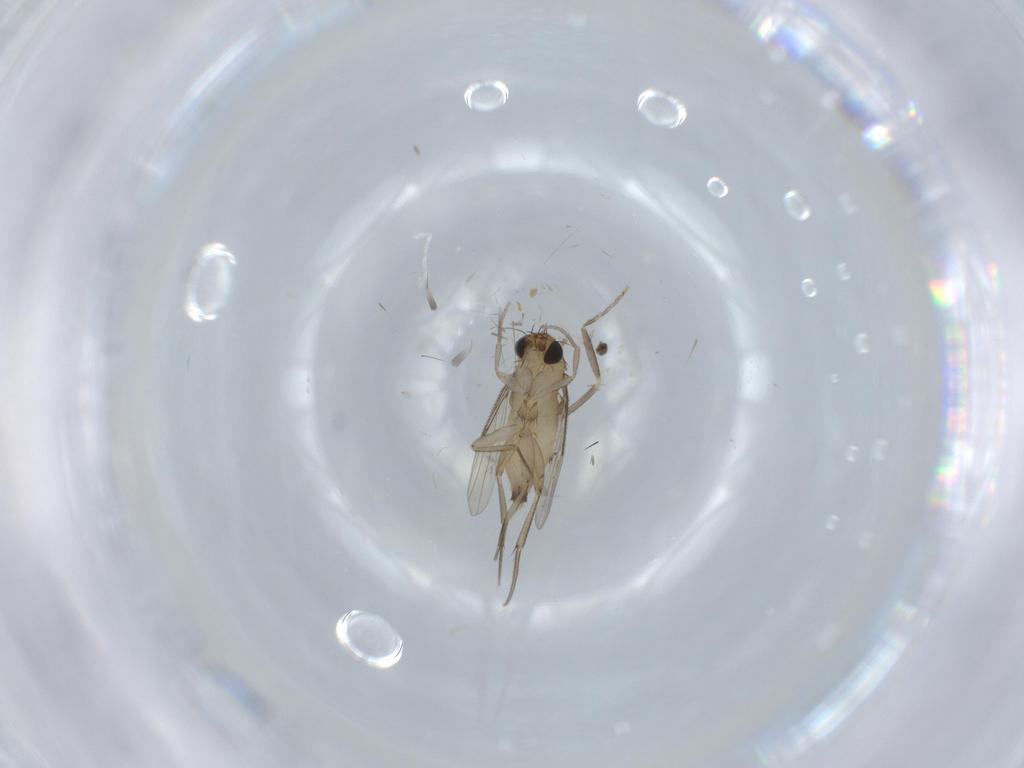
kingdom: Animalia
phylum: Arthropoda
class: Insecta
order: Diptera
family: Phoridae
